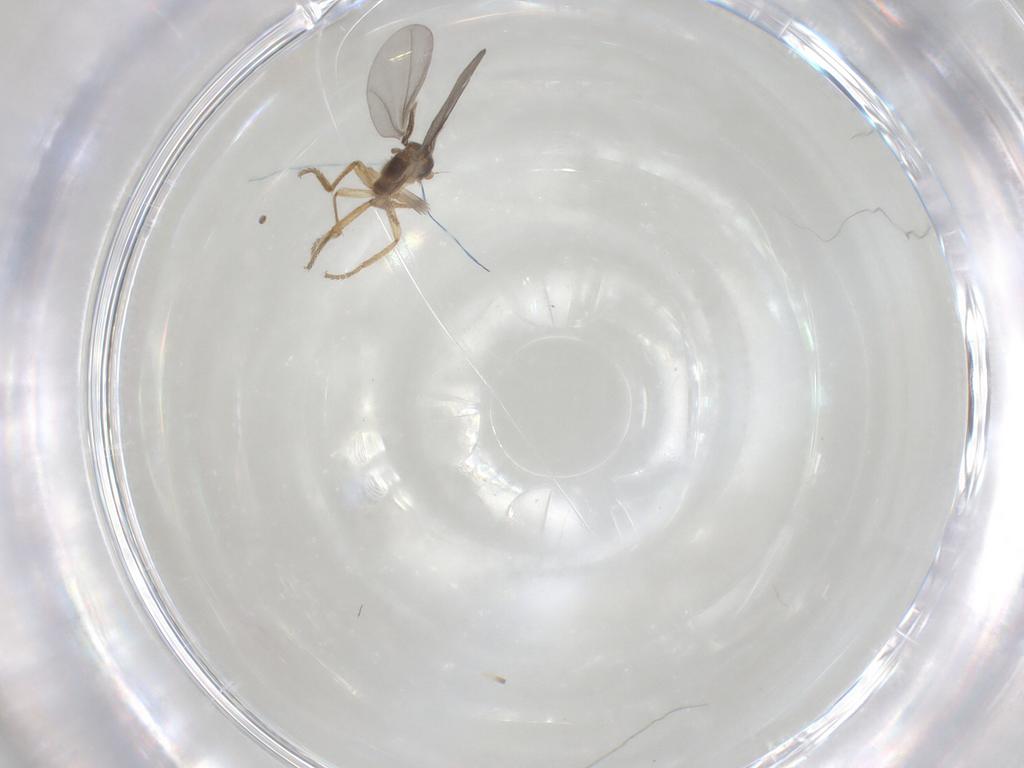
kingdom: Animalia
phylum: Arthropoda
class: Insecta
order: Diptera
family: Phoridae
